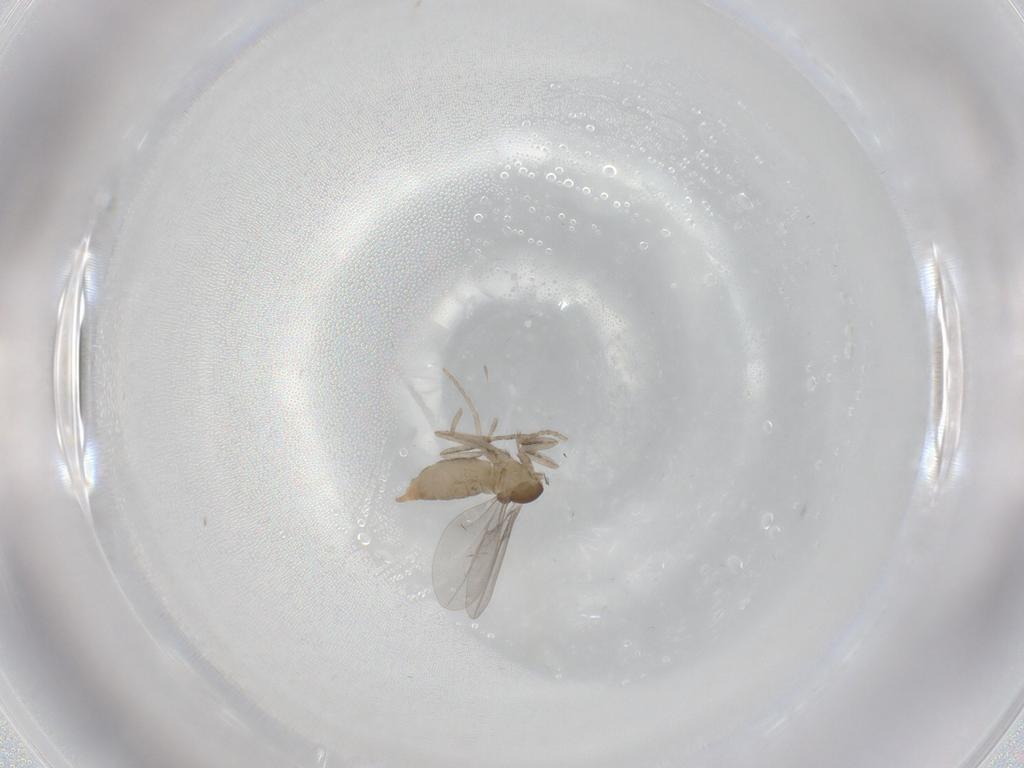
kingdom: Animalia
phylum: Arthropoda
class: Insecta
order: Diptera
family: Cecidomyiidae
